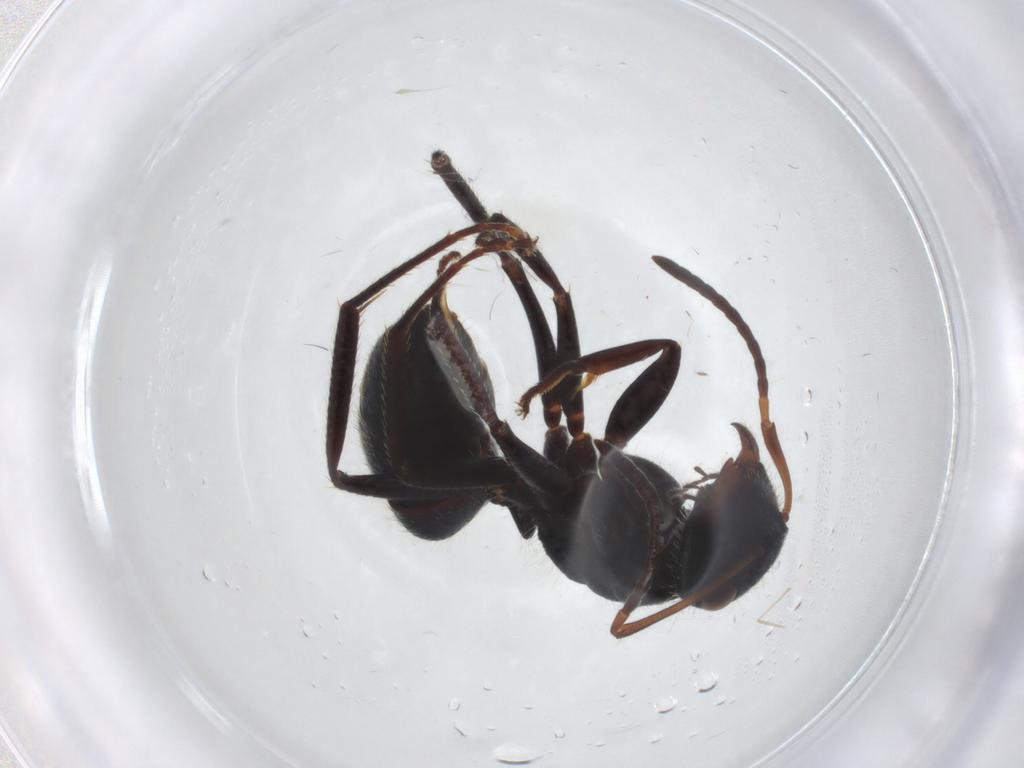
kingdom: Animalia
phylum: Arthropoda
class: Insecta
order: Hymenoptera
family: Formicidae
